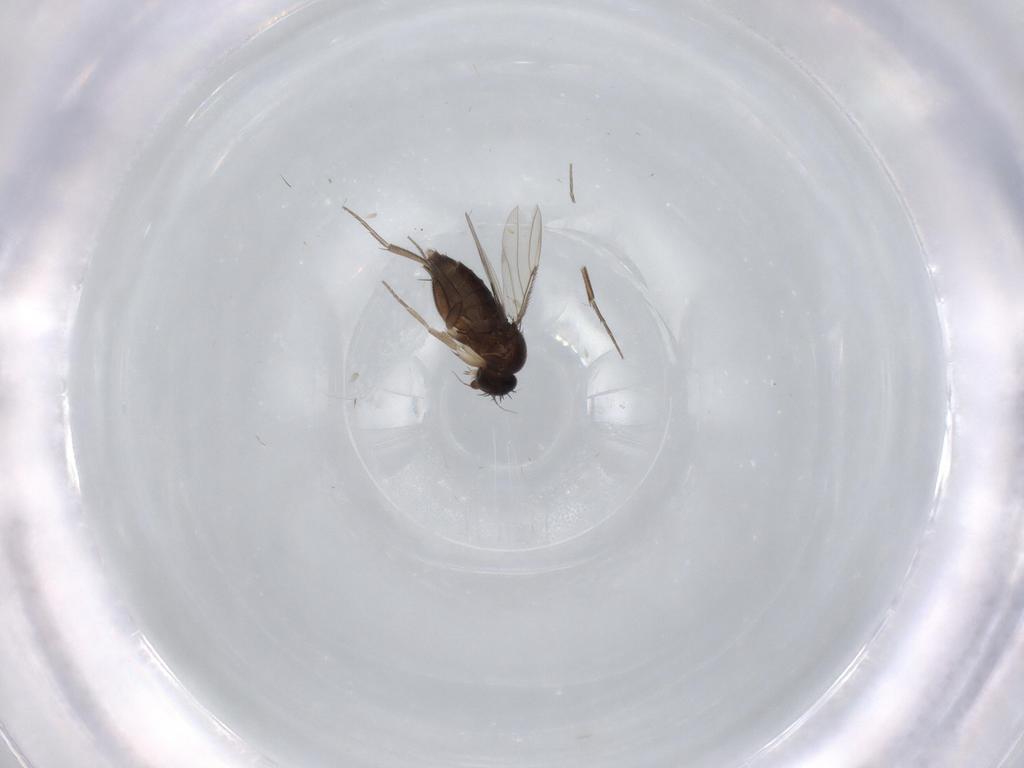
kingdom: Animalia
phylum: Arthropoda
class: Insecta
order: Diptera
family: Phoridae
